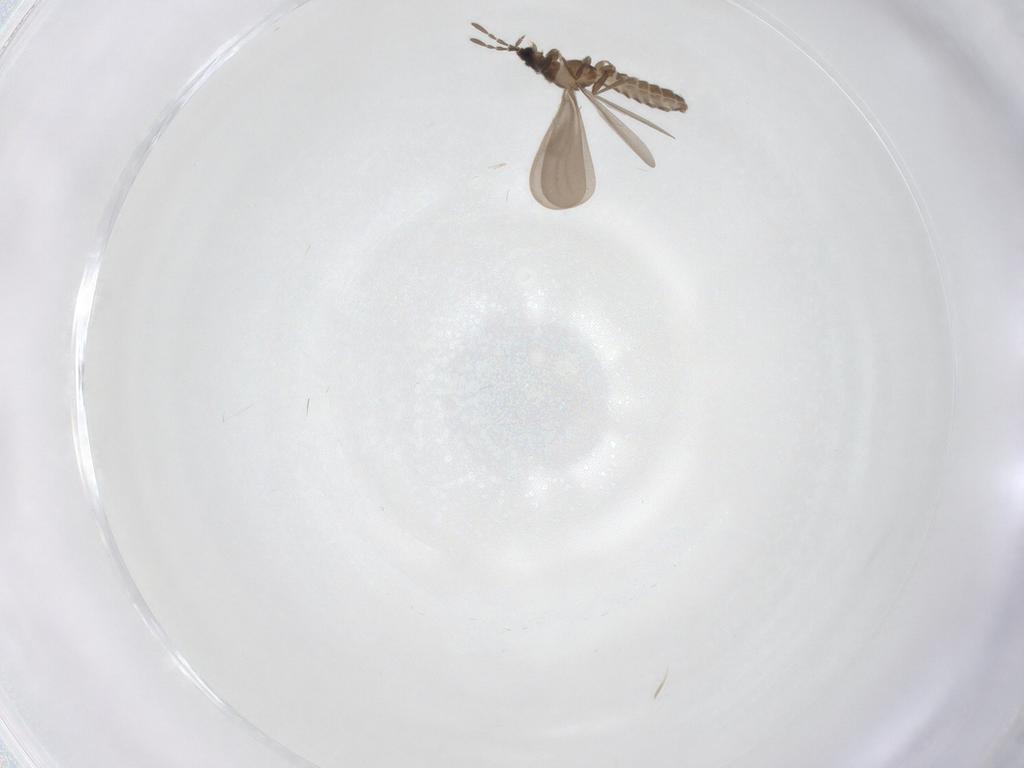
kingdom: Animalia
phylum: Arthropoda
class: Insecta
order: Hemiptera
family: Enicocephalidae
